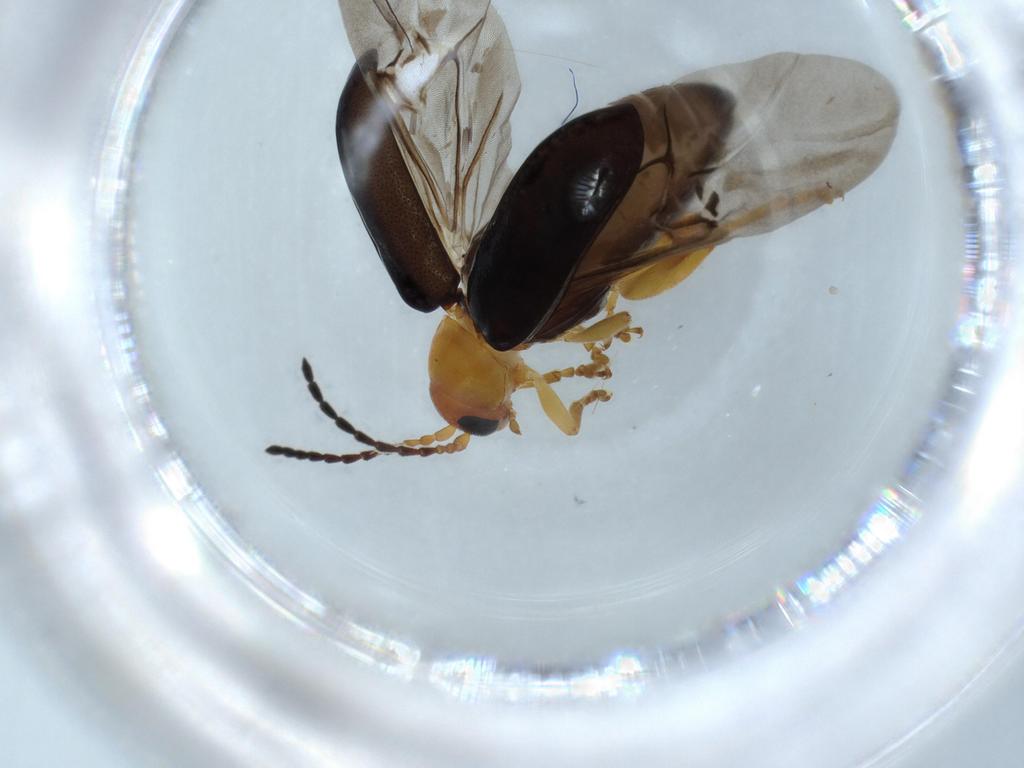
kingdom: Animalia
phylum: Arthropoda
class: Insecta
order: Coleoptera
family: Chrysomelidae
